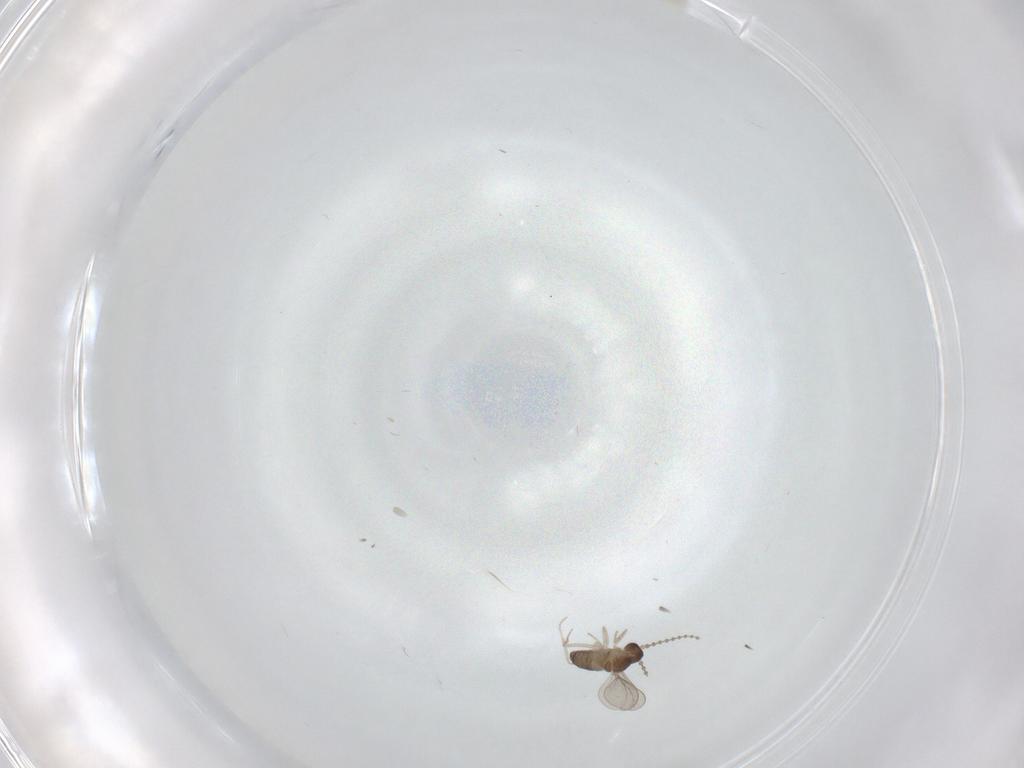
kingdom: Animalia
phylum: Arthropoda
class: Insecta
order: Diptera
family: Cecidomyiidae
